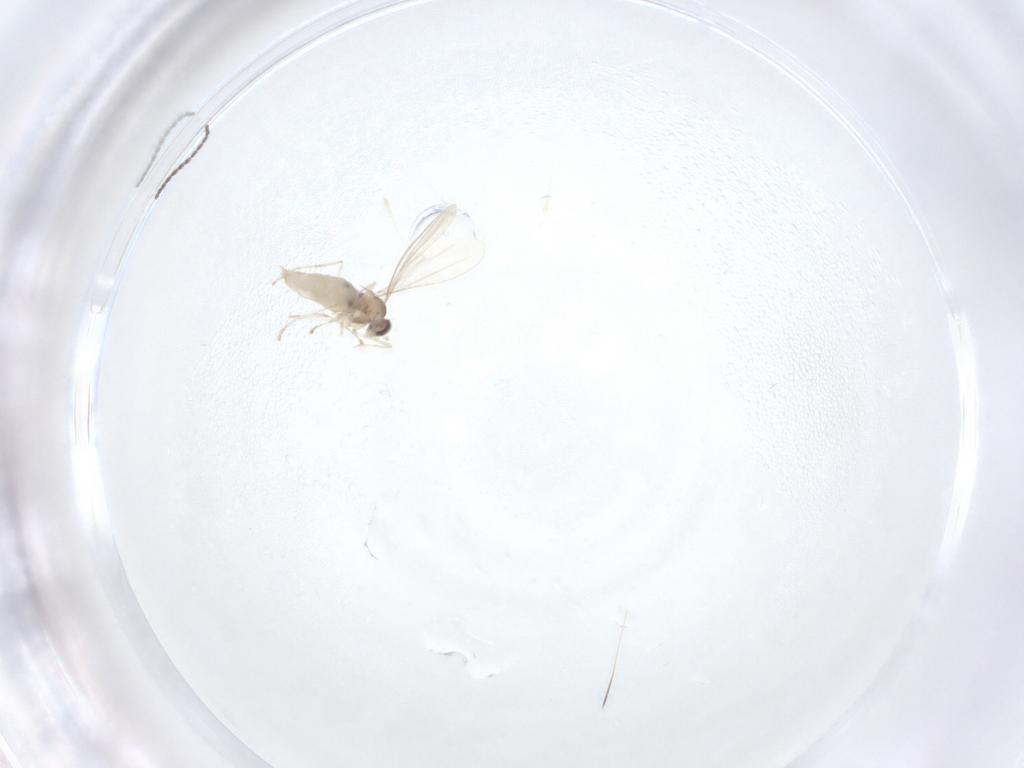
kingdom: Animalia
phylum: Arthropoda
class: Insecta
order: Diptera
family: Cecidomyiidae
